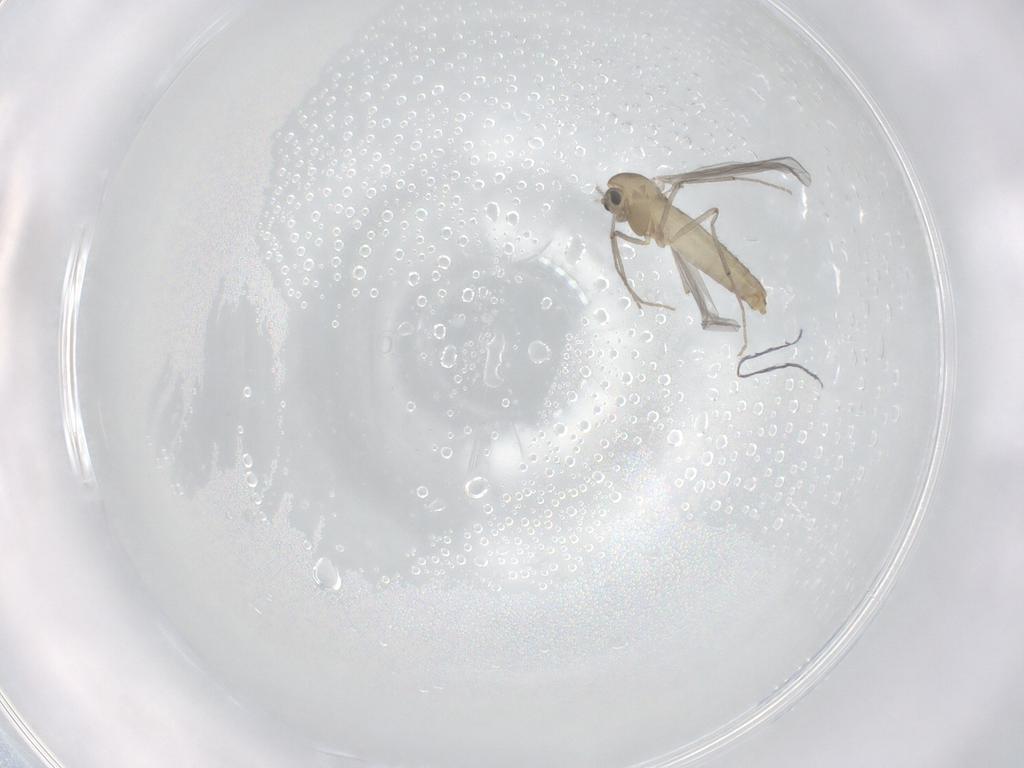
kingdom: Animalia
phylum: Arthropoda
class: Insecta
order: Diptera
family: Chironomidae
